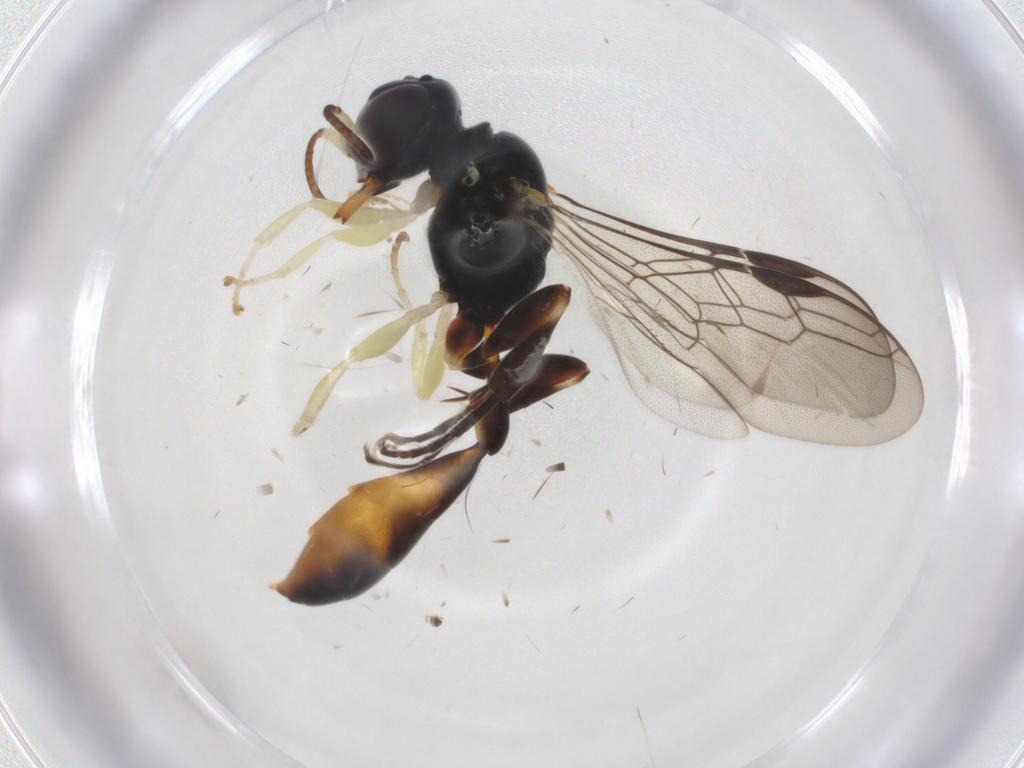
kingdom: Animalia
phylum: Arthropoda
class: Insecta
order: Hymenoptera
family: Crabronidae
